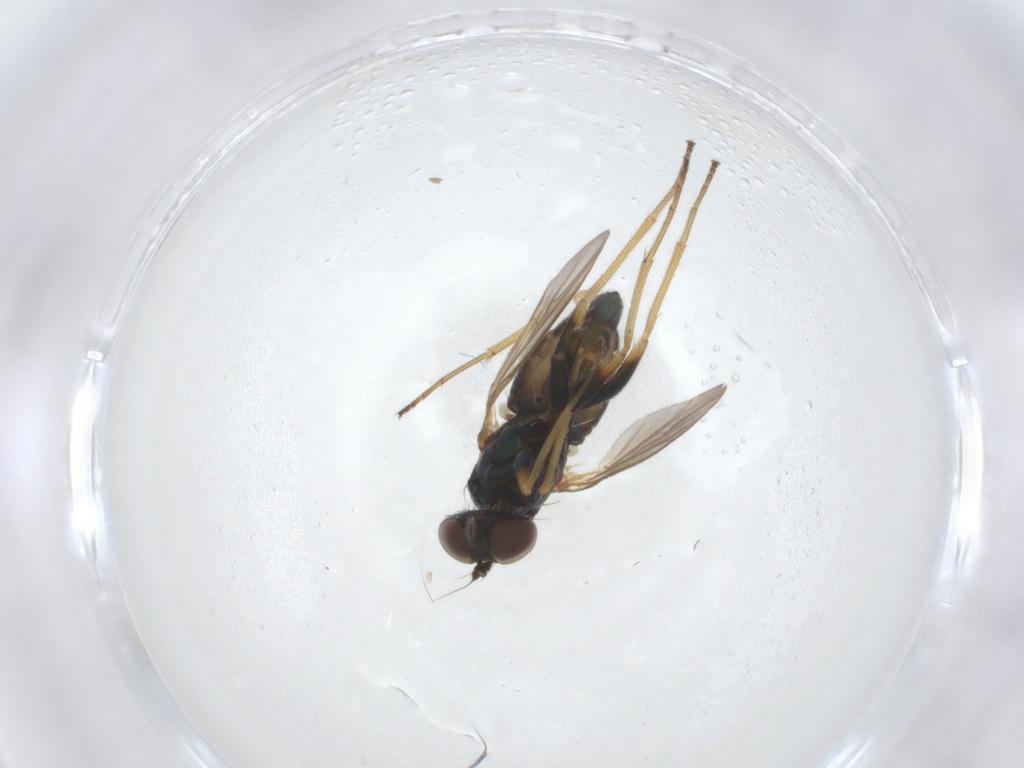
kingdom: Animalia
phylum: Arthropoda
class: Insecta
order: Diptera
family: Dolichopodidae
